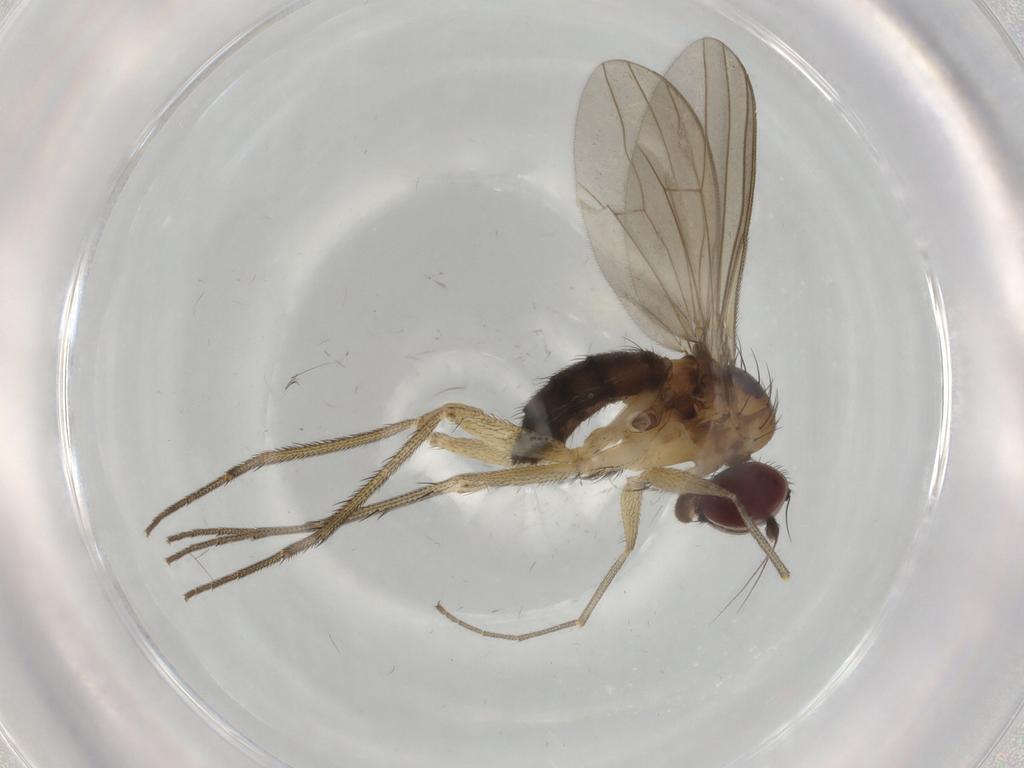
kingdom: Animalia
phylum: Arthropoda
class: Insecta
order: Diptera
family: Dolichopodidae
